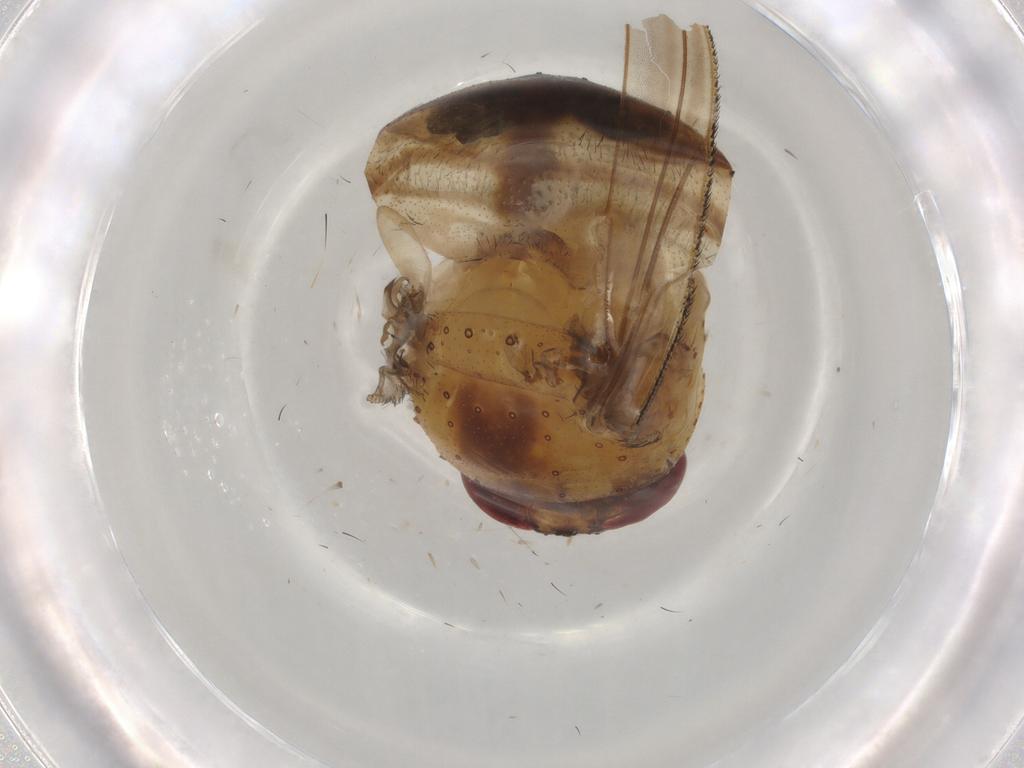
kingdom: Animalia
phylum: Arthropoda
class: Insecta
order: Diptera
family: Tachinidae
